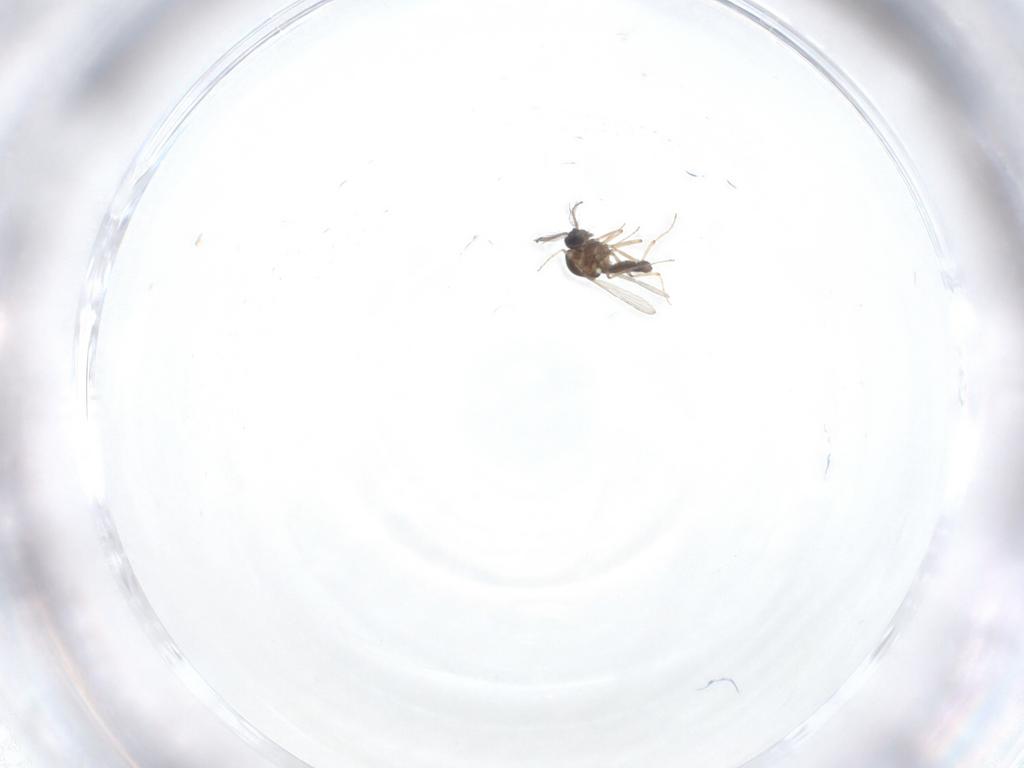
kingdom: Animalia
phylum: Arthropoda
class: Insecta
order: Diptera
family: Ceratopogonidae
